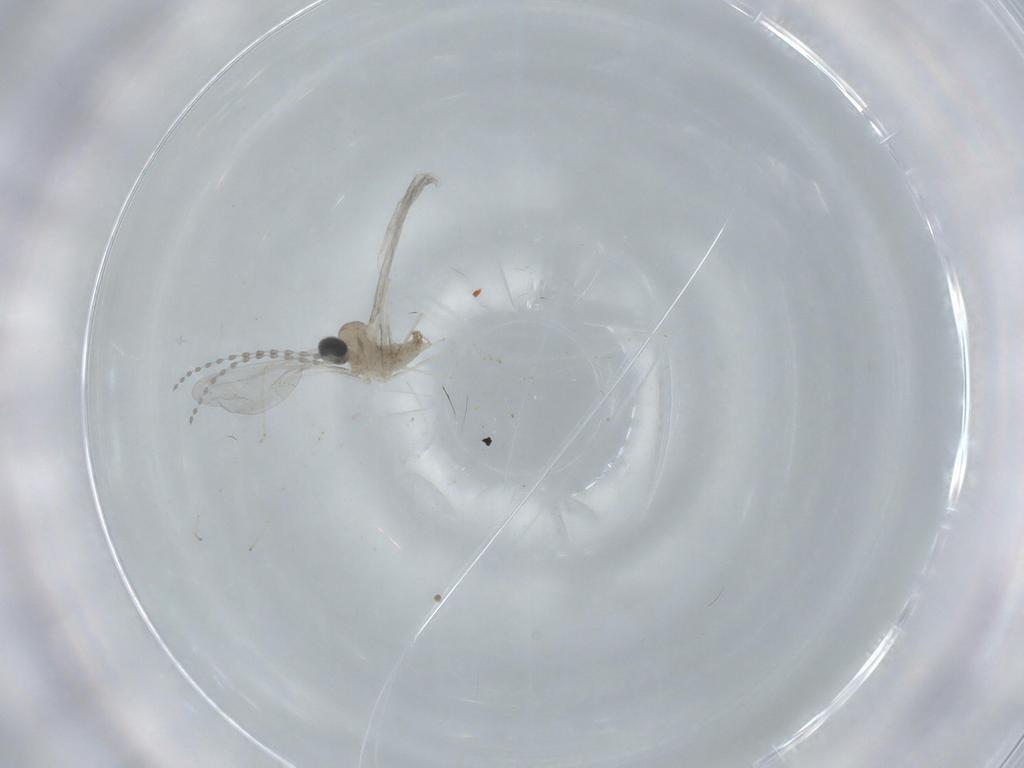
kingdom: Animalia
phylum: Arthropoda
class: Insecta
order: Diptera
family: Cecidomyiidae
